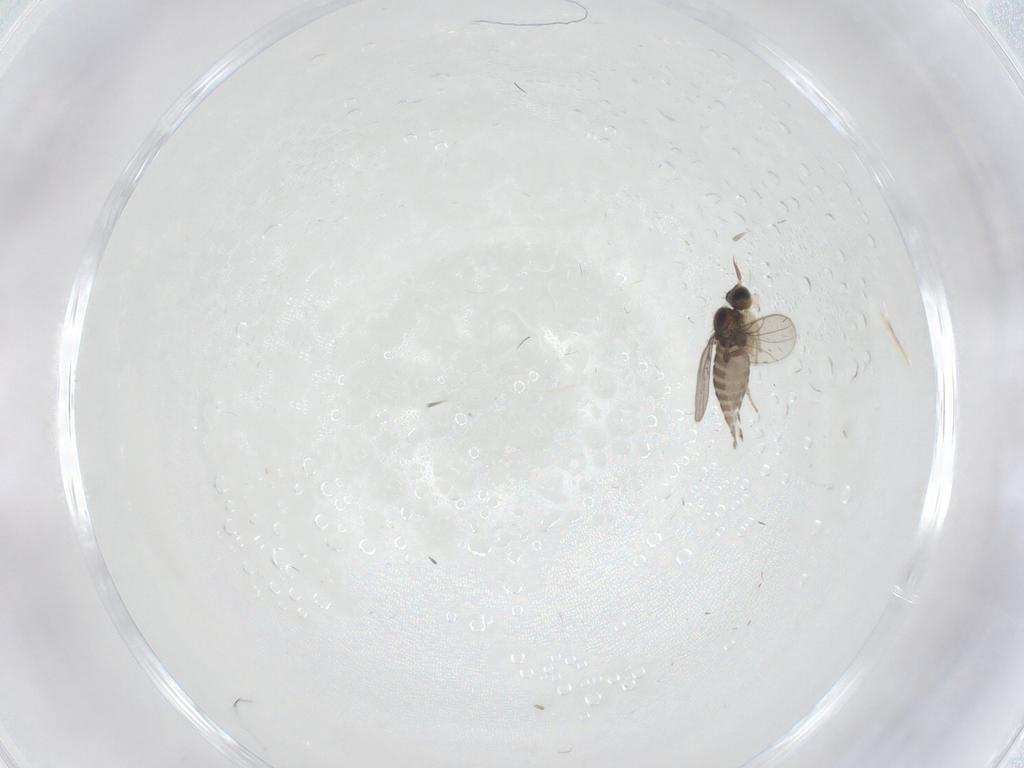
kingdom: Animalia
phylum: Arthropoda
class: Insecta
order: Diptera
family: Hybotidae
